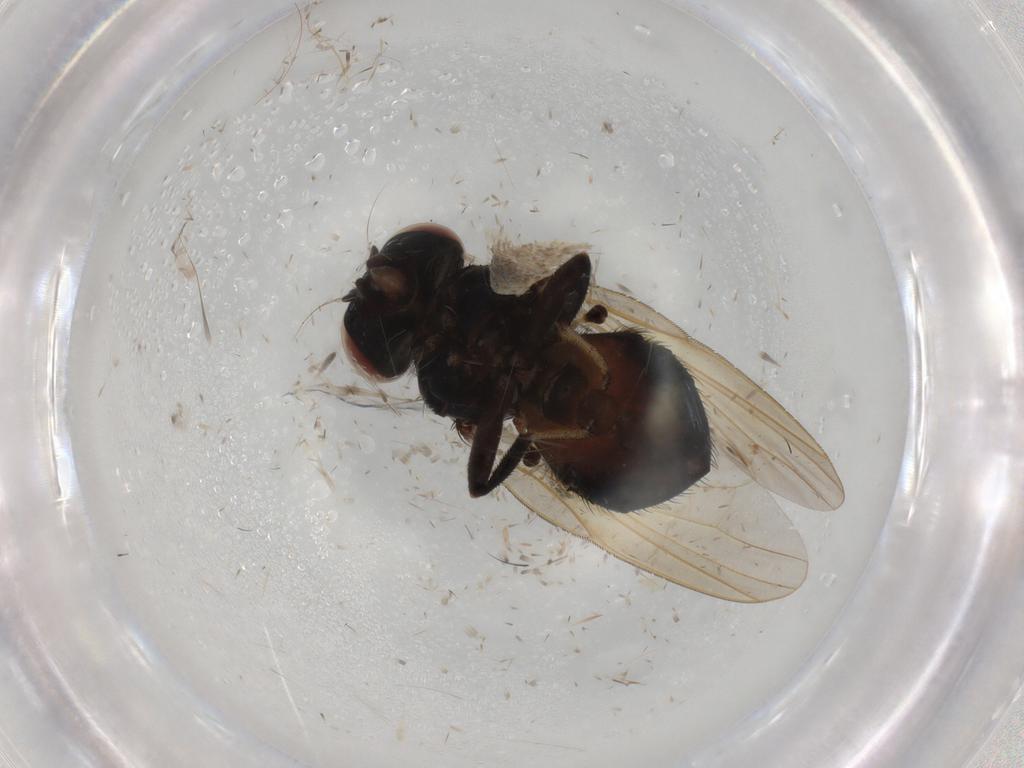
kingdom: Animalia
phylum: Arthropoda
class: Insecta
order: Diptera
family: Lonchaeidae
